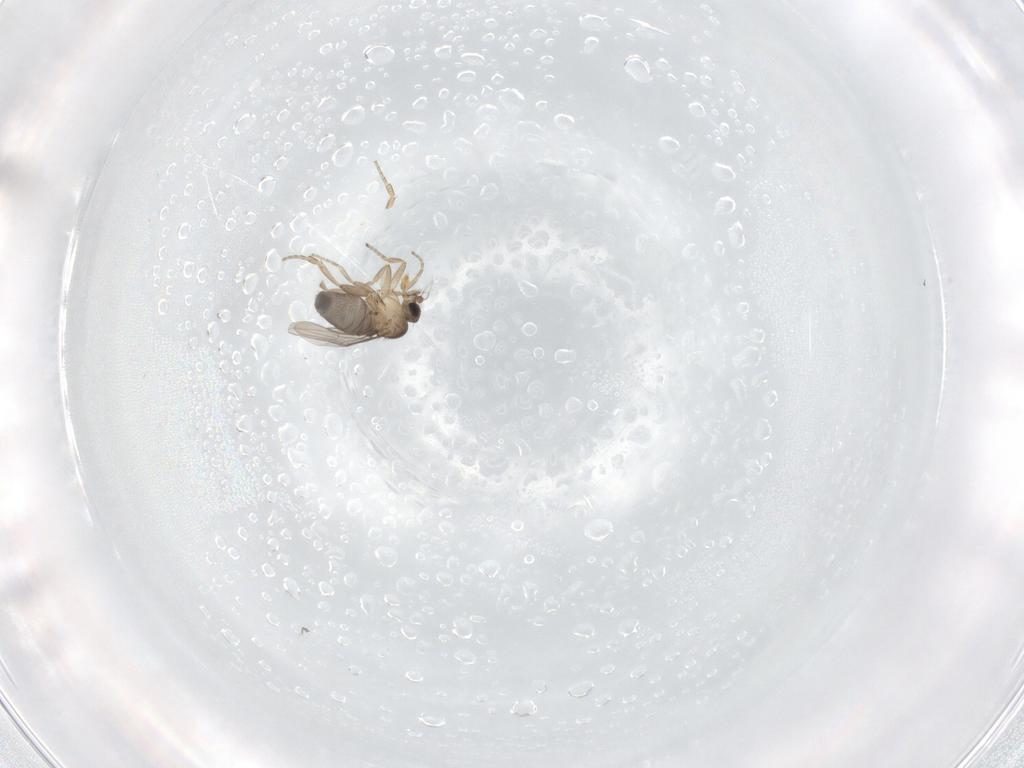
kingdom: Animalia
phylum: Arthropoda
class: Insecta
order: Diptera
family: Phoridae
